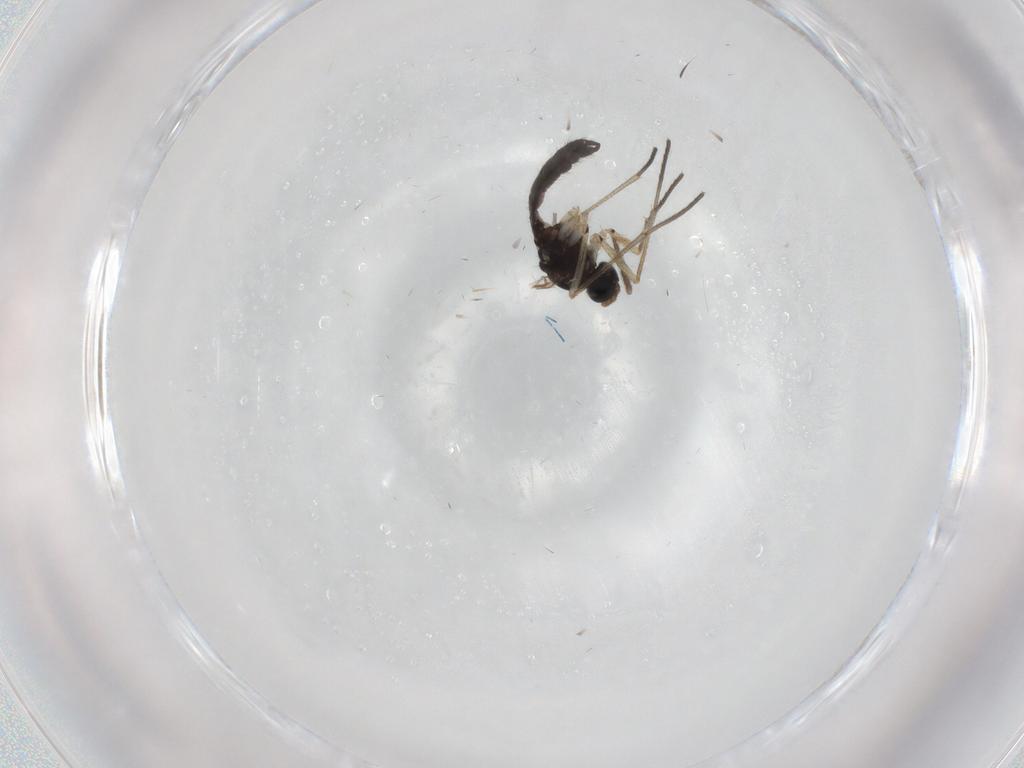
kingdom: Animalia
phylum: Arthropoda
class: Insecta
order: Diptera
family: Sciaridae
